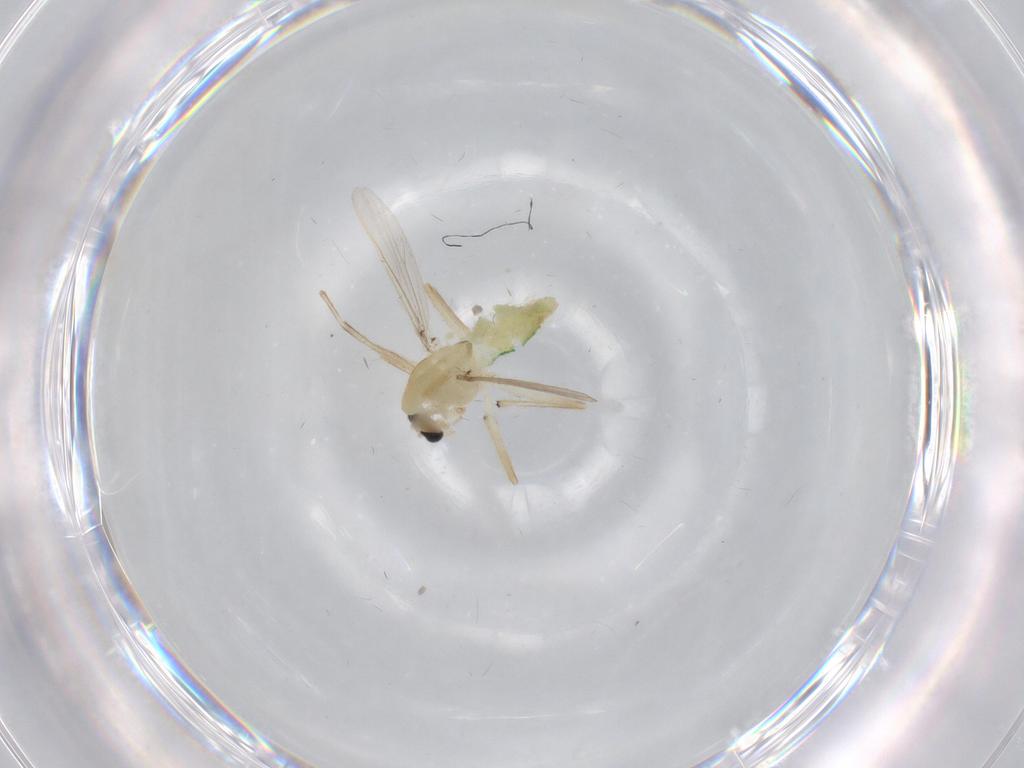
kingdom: Animalia
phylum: Arthropoda
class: Insecta
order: Diptera
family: Chironomidae
